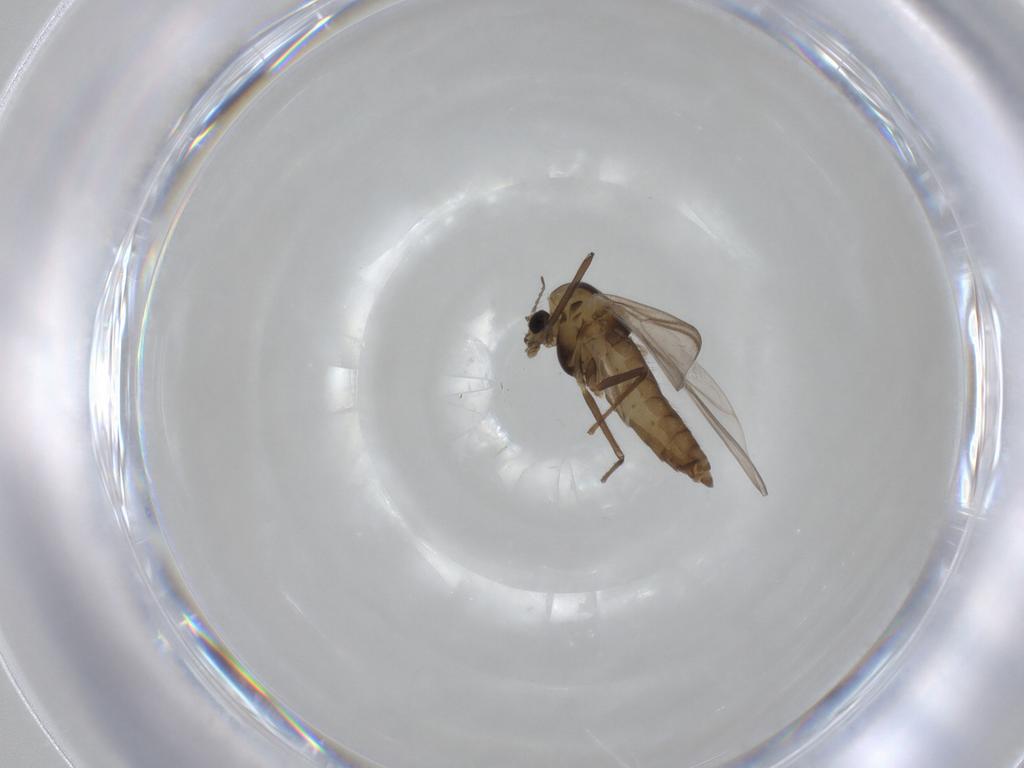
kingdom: Animalia
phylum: Arthropoda
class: Insecta
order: Diptera
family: Chironomidae
